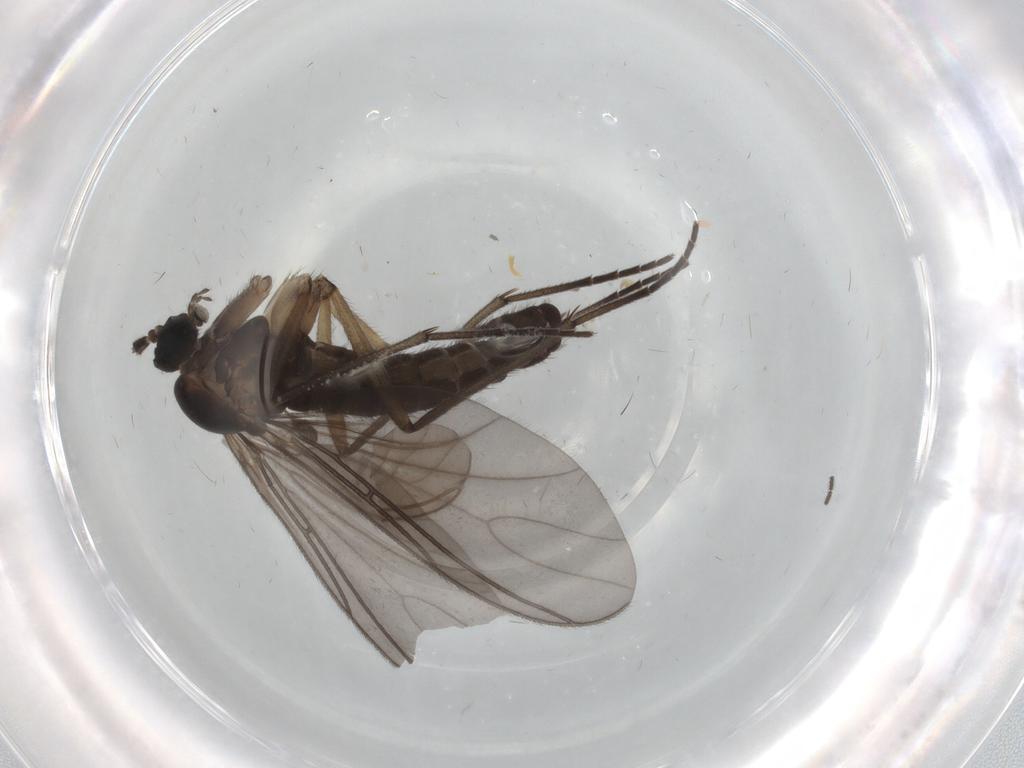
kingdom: Animalia
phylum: Arthropoda
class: Insecta
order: Diptera
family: Sciaridae
